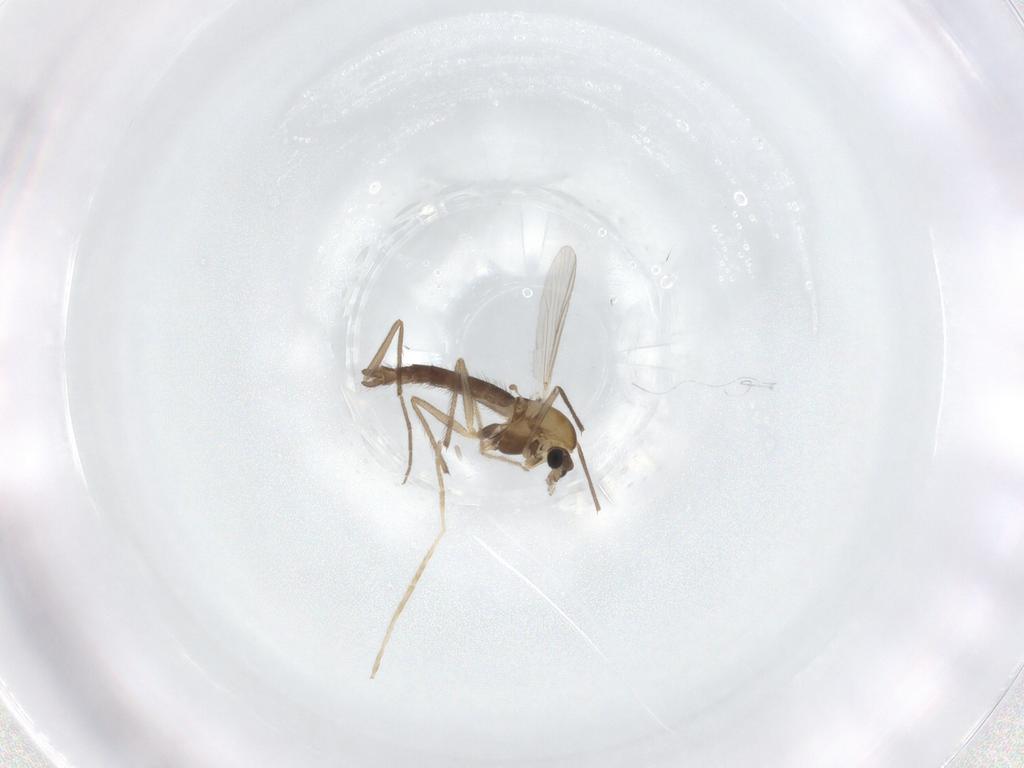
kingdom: Animalia
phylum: Arthropoda
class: Insecta
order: Diptera
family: Chironomidae
